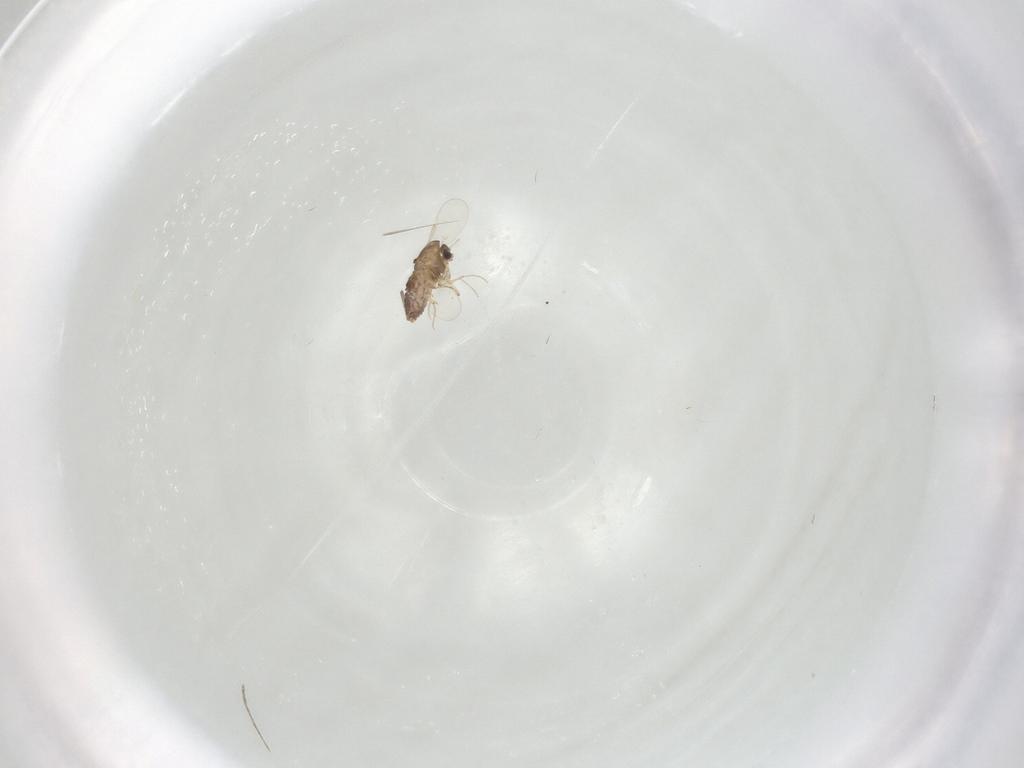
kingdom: Animalia
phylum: Arthropoda
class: Insecta
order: Diptera
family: Chironomidae
